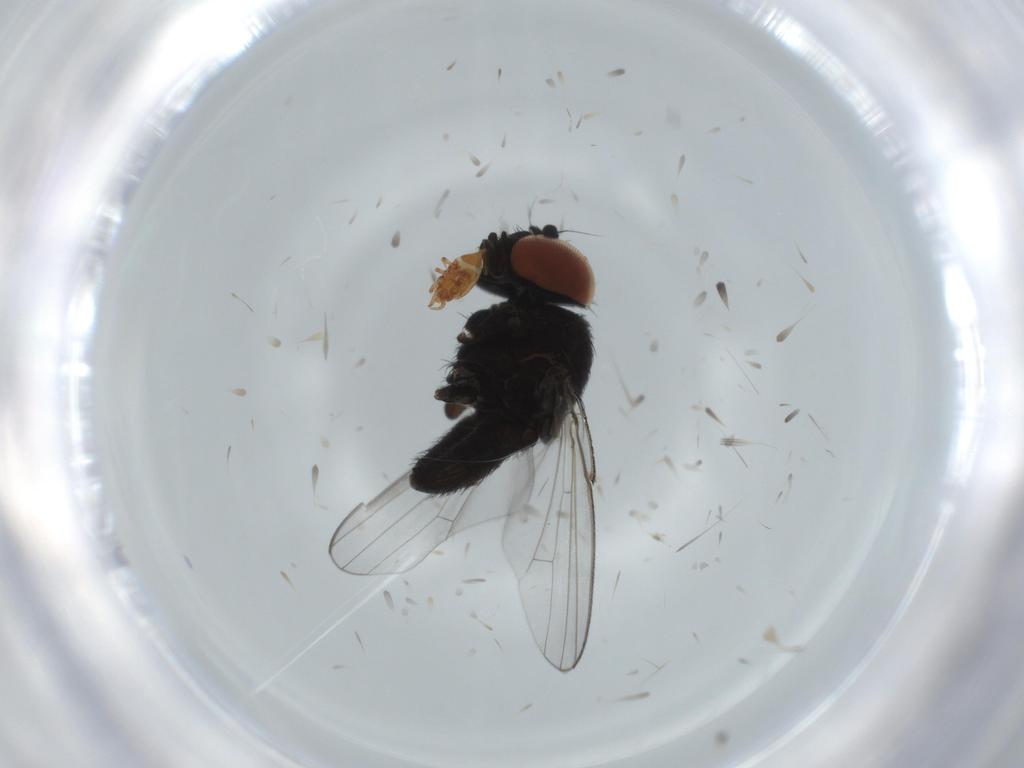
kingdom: Animalia
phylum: Arthropoda
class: Insecta
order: Diptera
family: Milichiidae
